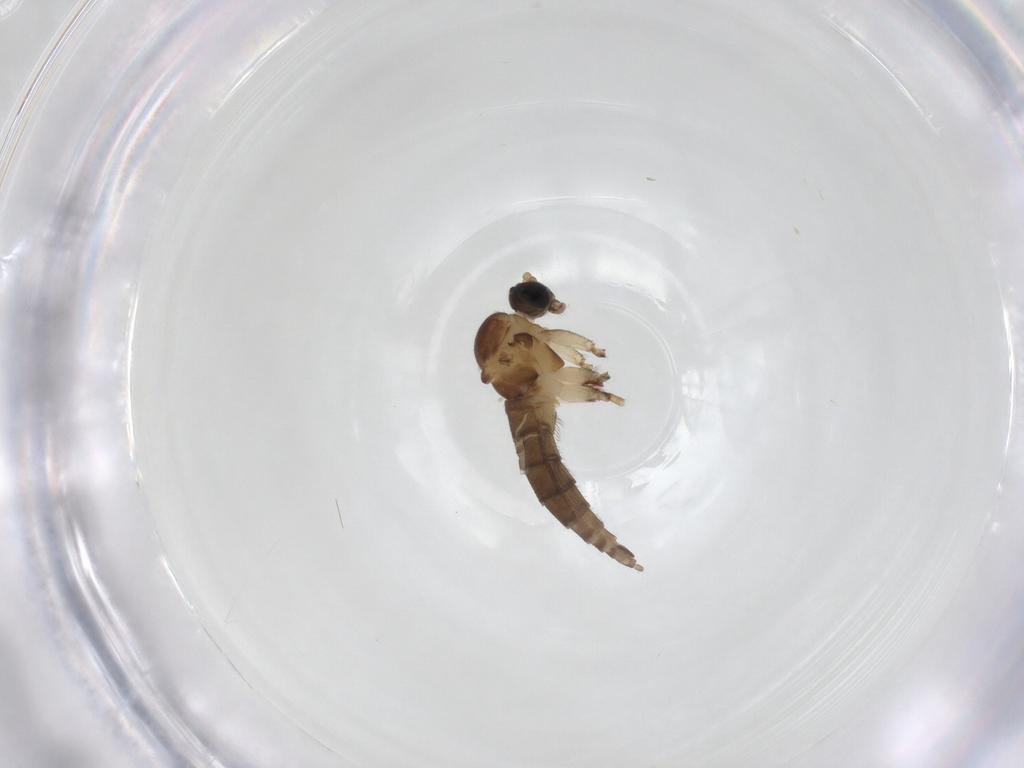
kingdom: Animalia
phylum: Arthropoda
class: Insecta
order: Diptera
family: Sciaridae
